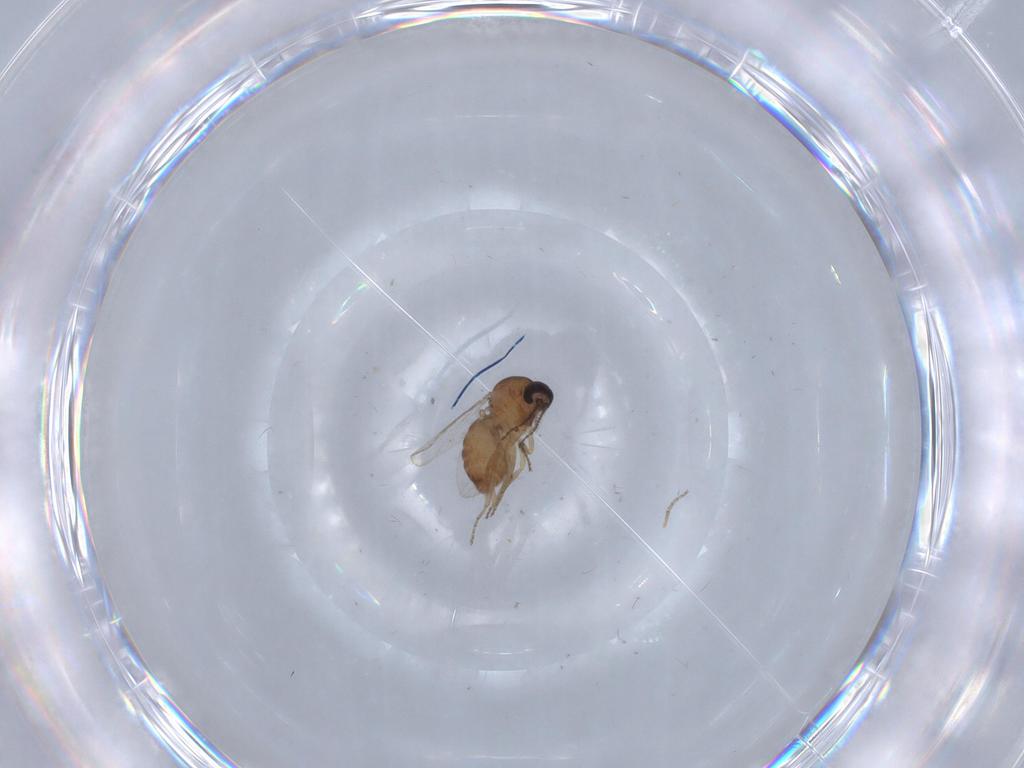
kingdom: Animalia
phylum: Arthropoda
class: Insecta
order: Diptera
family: Ceratopogonidae
